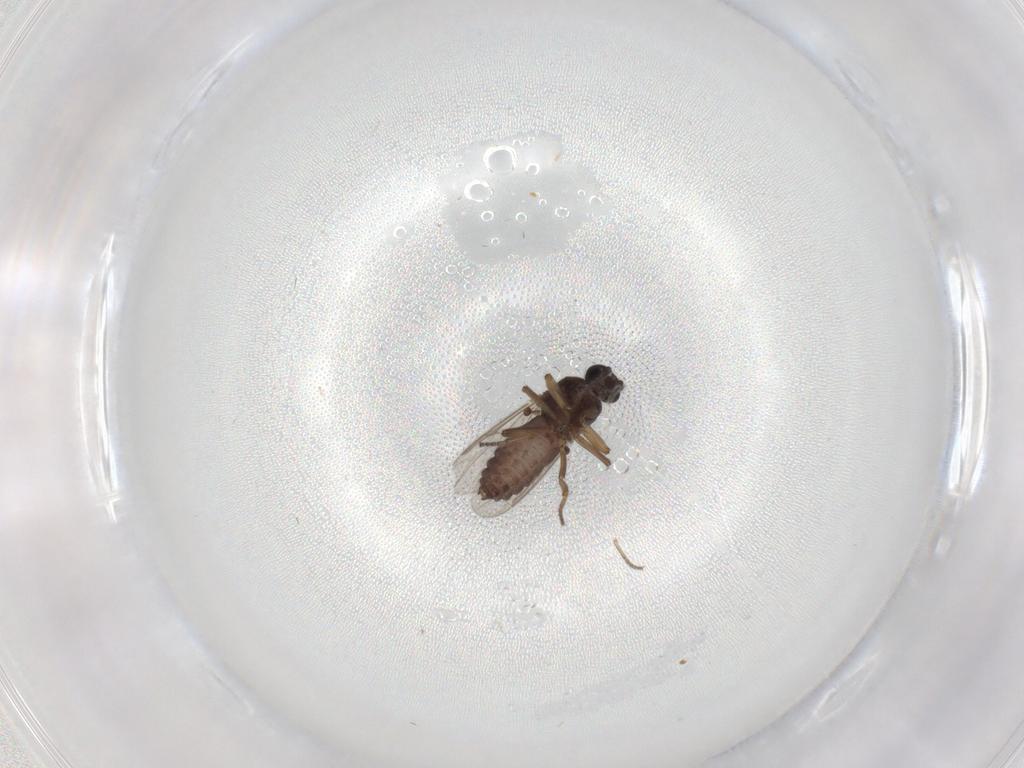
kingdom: Animalia
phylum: Arthropoda
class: Insecta
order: Diptera
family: Ceratopogonidae
